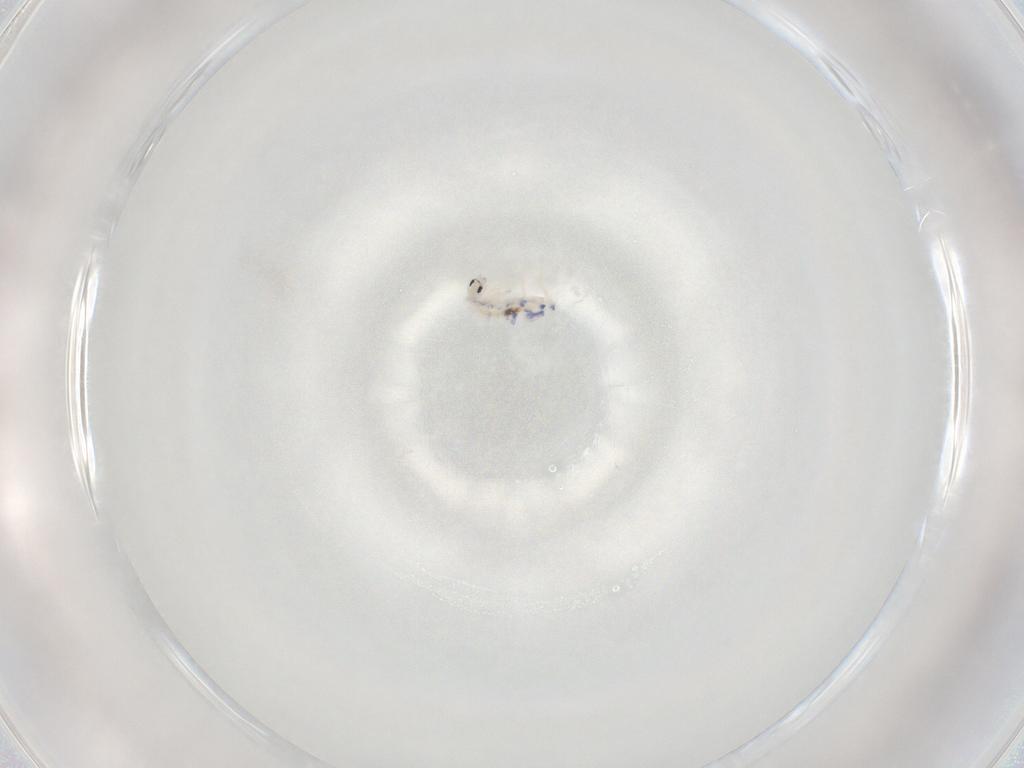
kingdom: Animalia
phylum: Arthropoda
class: Collembola
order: Entomobryomorpha
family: Entomobryidae
